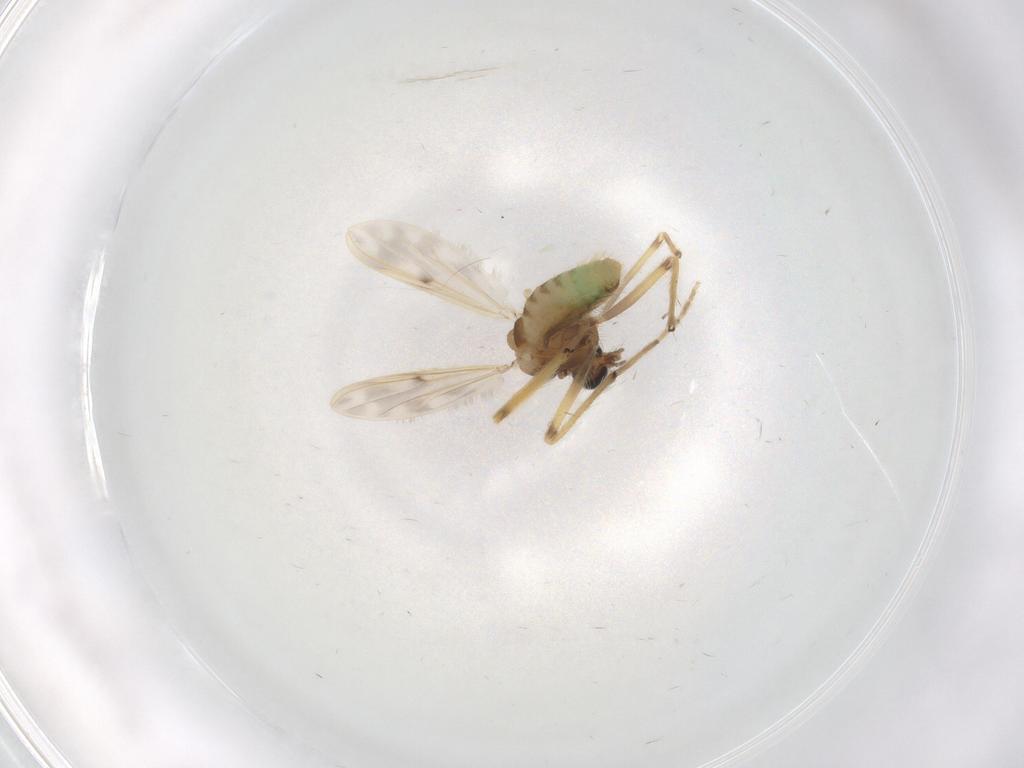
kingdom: Animalia
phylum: Arthropoda
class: Insecta
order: Diptera
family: Chironomidae
